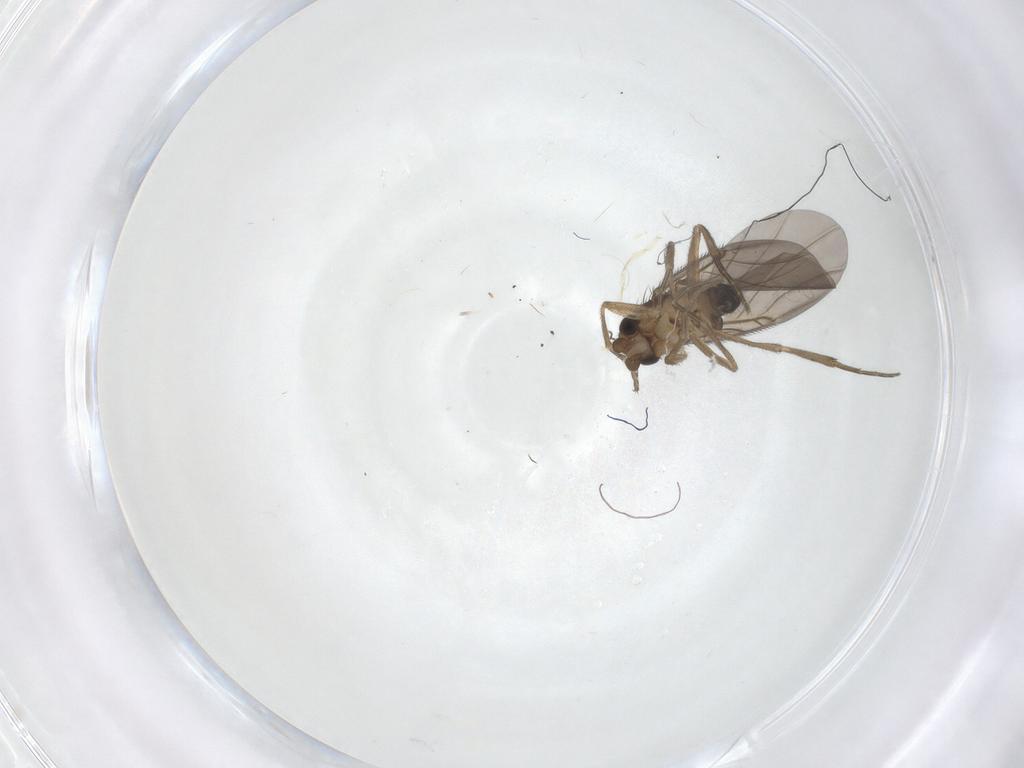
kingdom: Animalia
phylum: Arthropoda
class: Insecta
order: Diptera
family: Phoridae
